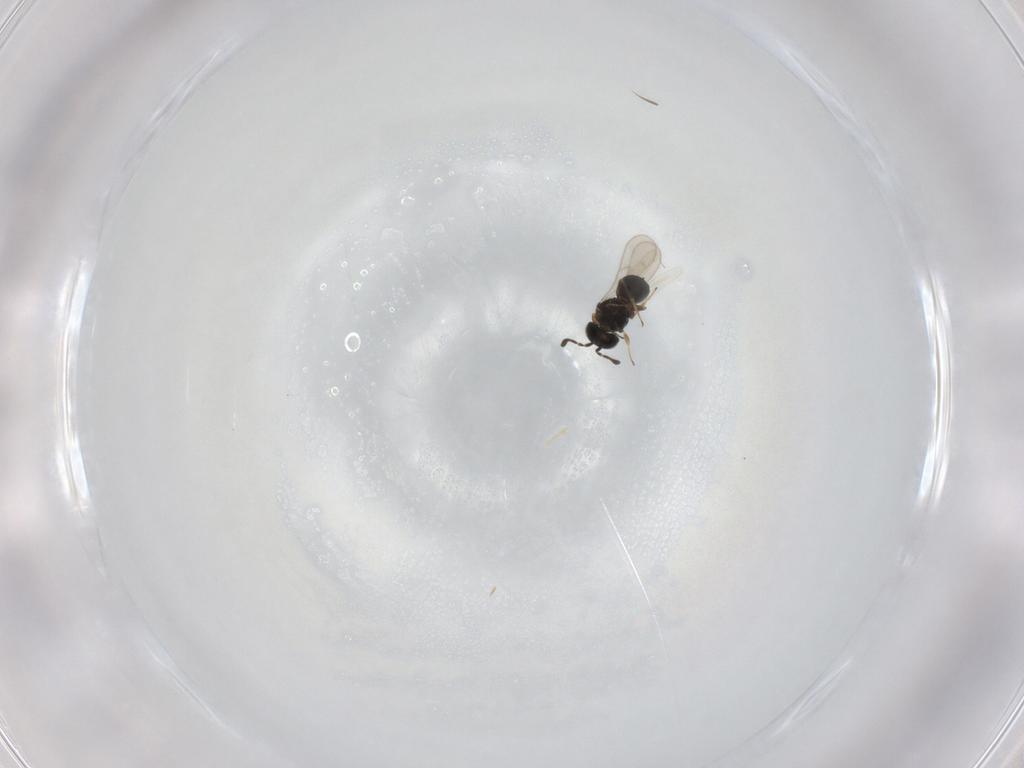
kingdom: Animalia
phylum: Arthropoda
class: Insecta
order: Hymenoptera
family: Scelionidae
